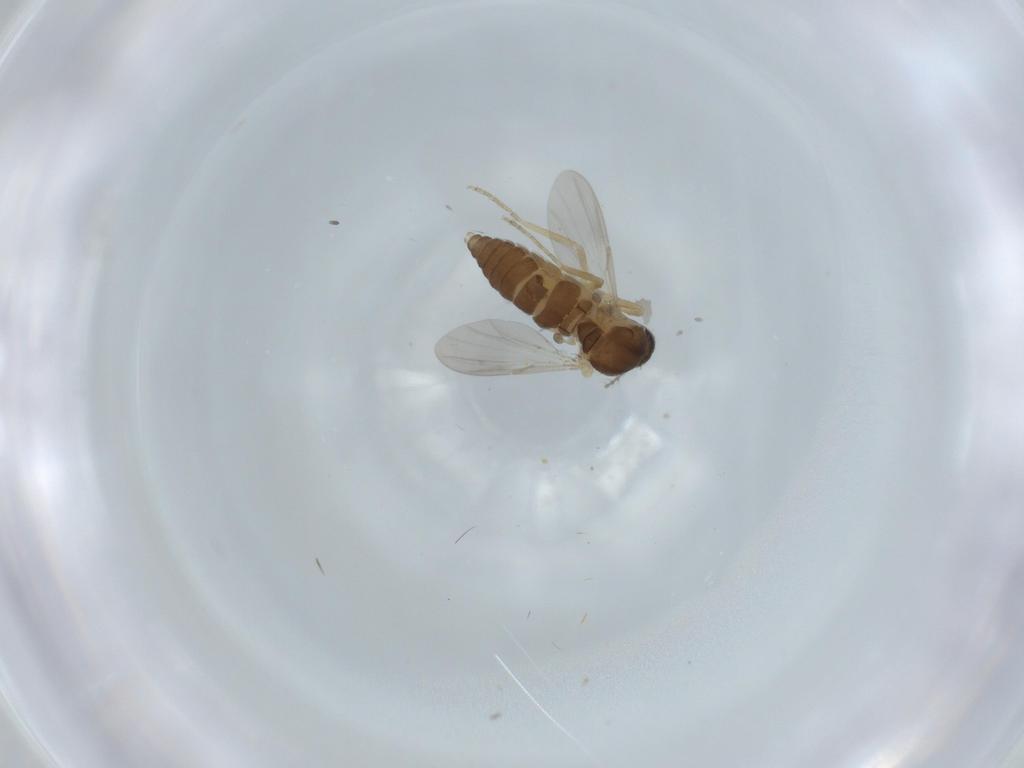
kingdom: Animalia
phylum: Arthropoda
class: Insecta
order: Diptera
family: Ceratopogonidae
